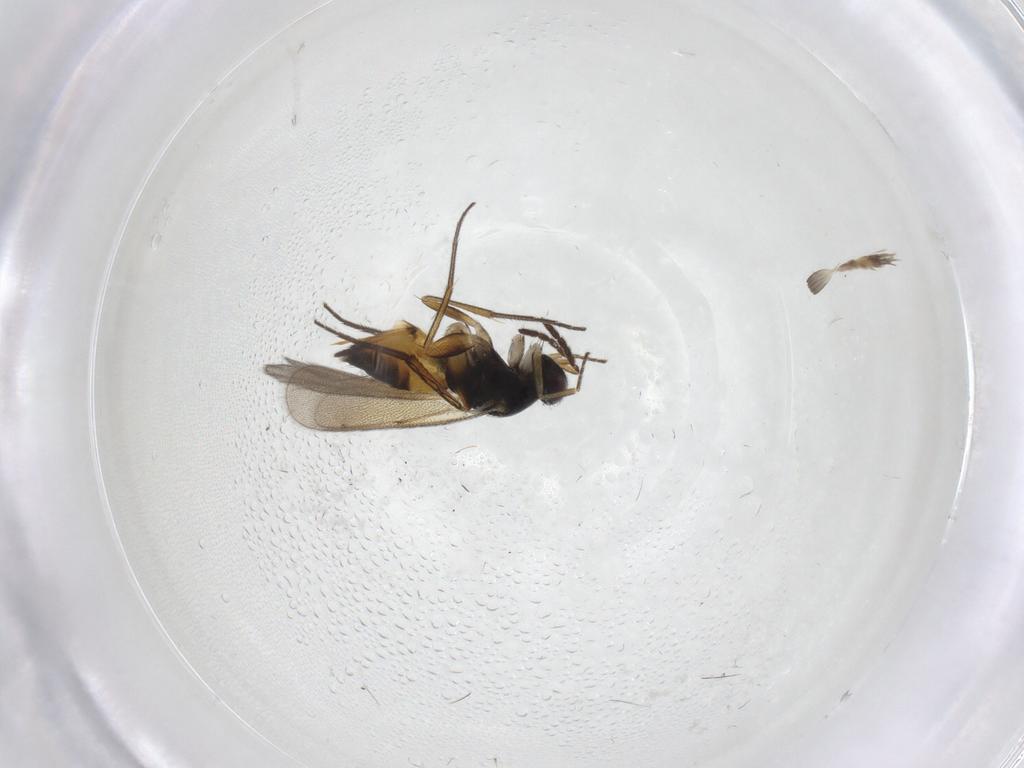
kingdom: Animalia
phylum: Arthropoda
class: Insecta
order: Hymenoptera
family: Eulophidae
